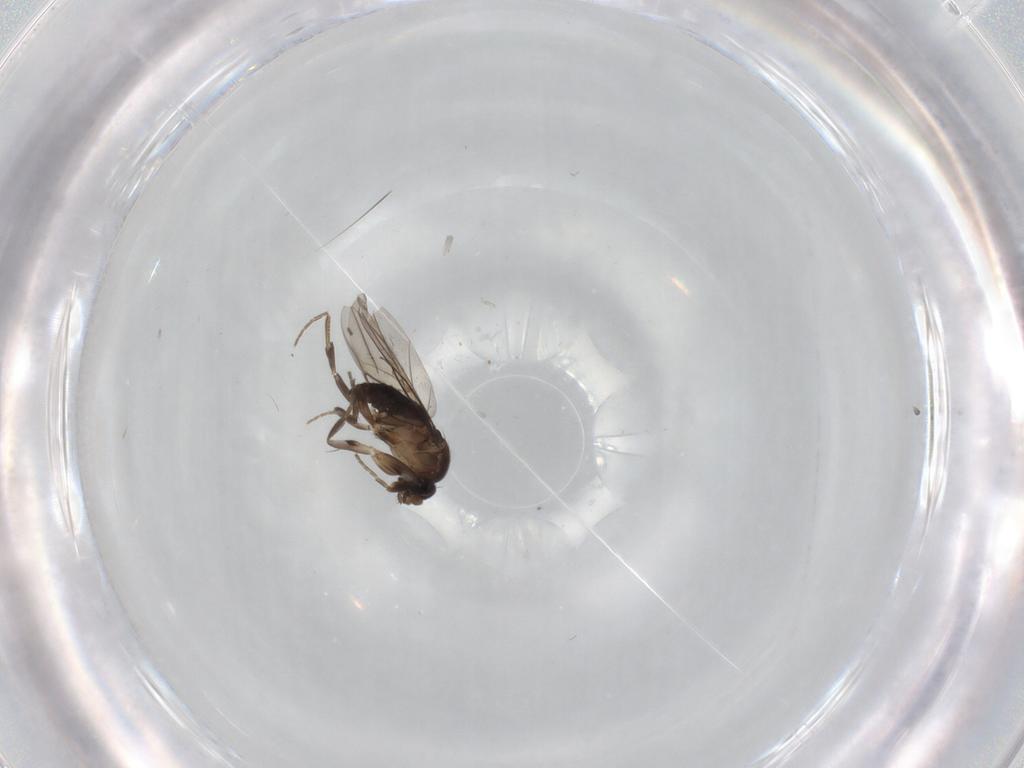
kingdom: Animalia
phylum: Arthropoda
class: Insecta
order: Diptera
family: Phoridae
